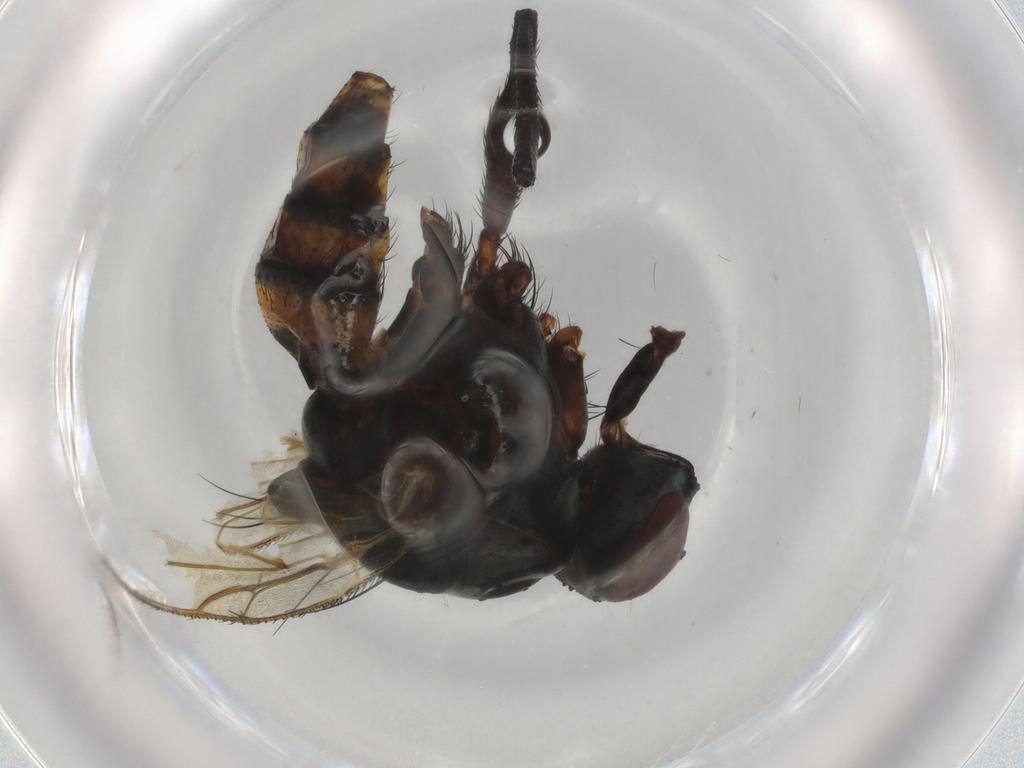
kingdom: Animalia
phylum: Arthropoda
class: Insecta
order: Diptera
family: Anthomyiidae
